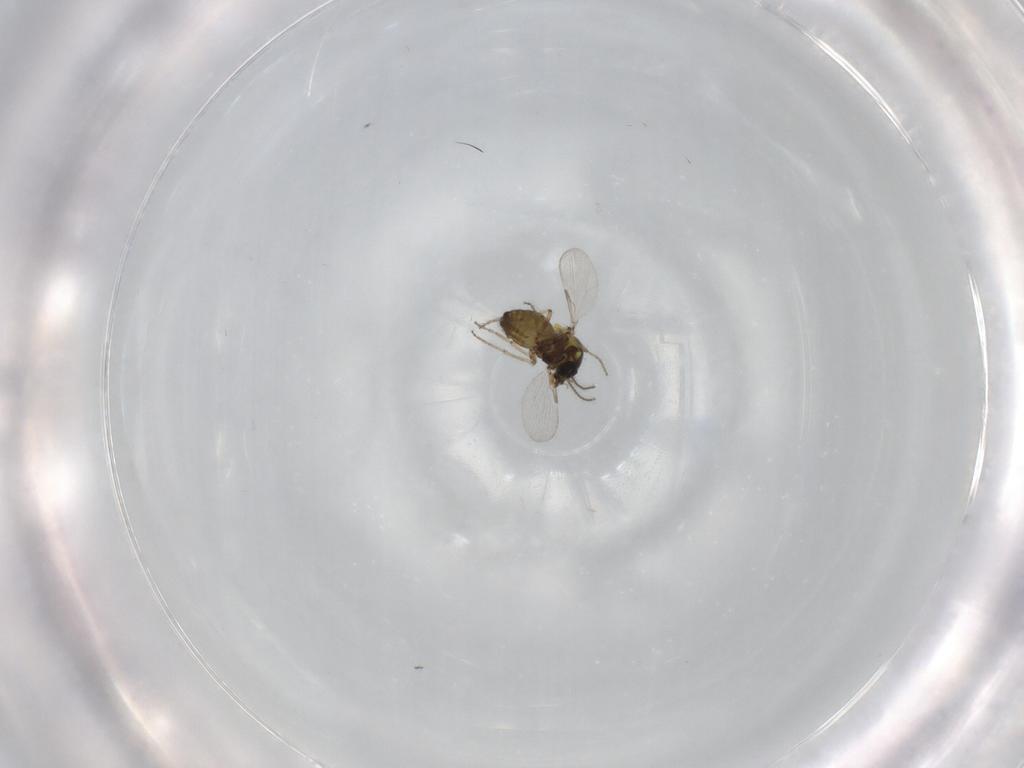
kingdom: Animalia
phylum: Arthropoda
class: Insecta
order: Diptera
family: Ceratopogonidae
